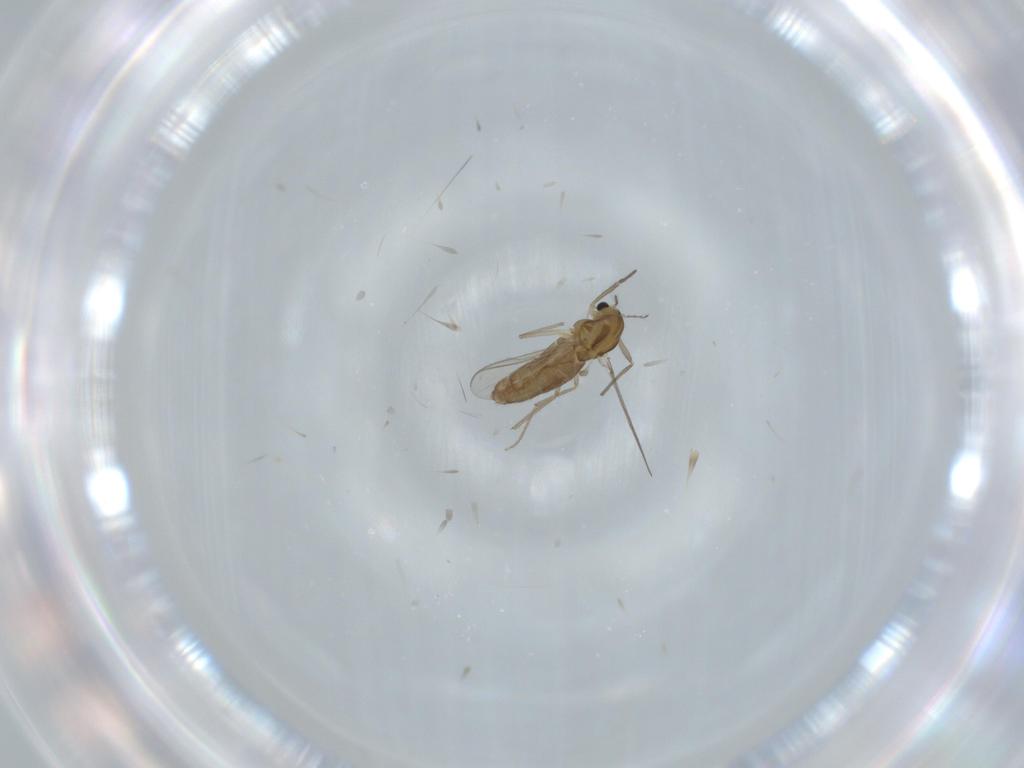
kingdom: Animalia
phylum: Arthropoda
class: Insecta
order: Diptera
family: Chironomidae
